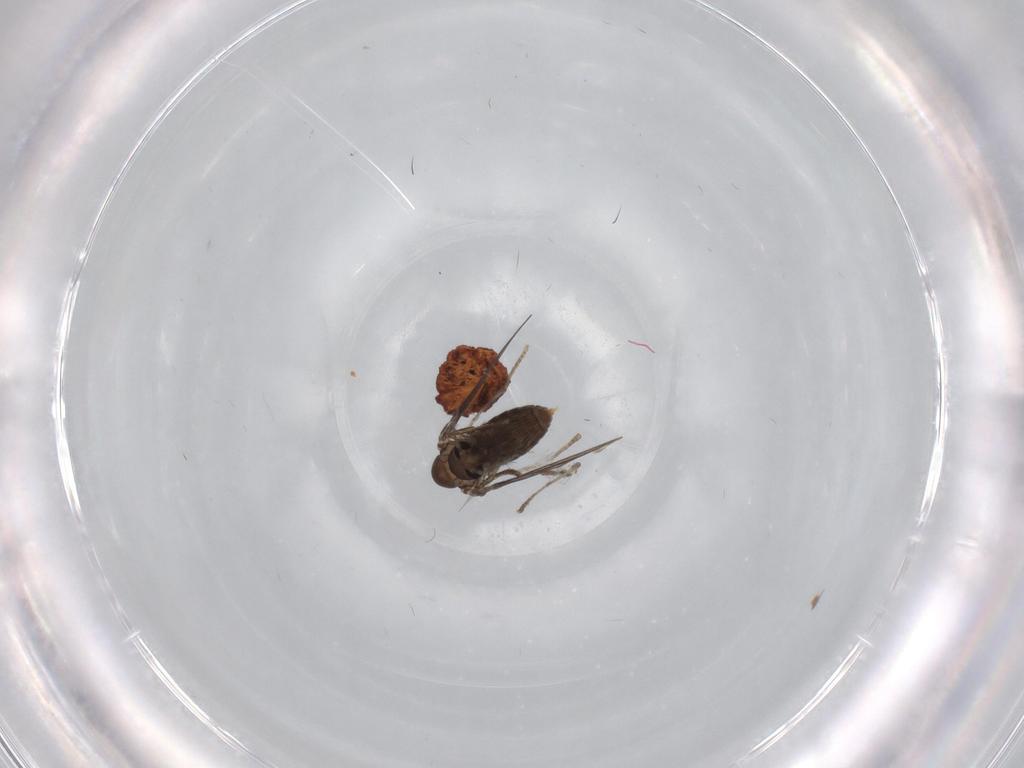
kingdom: Animalia
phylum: Arthropoda
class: Insecta
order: Diptera
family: Psychodidae
